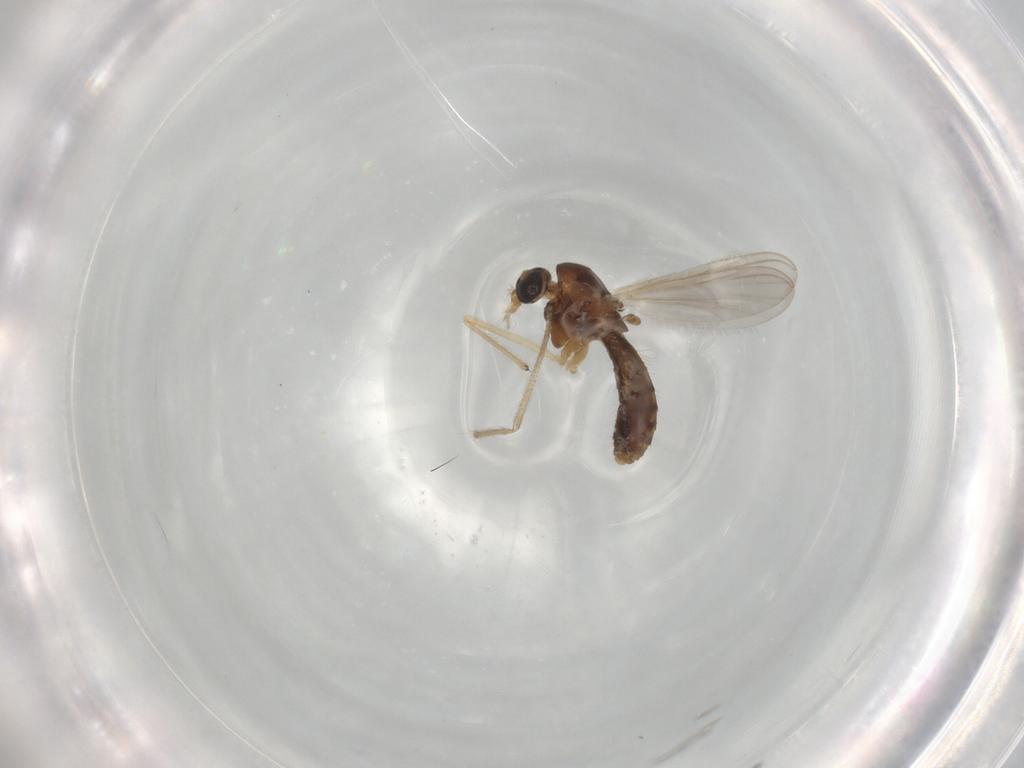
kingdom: Animalia
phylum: Arthropoda
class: Insecta
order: Diptera
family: Chironomidae
